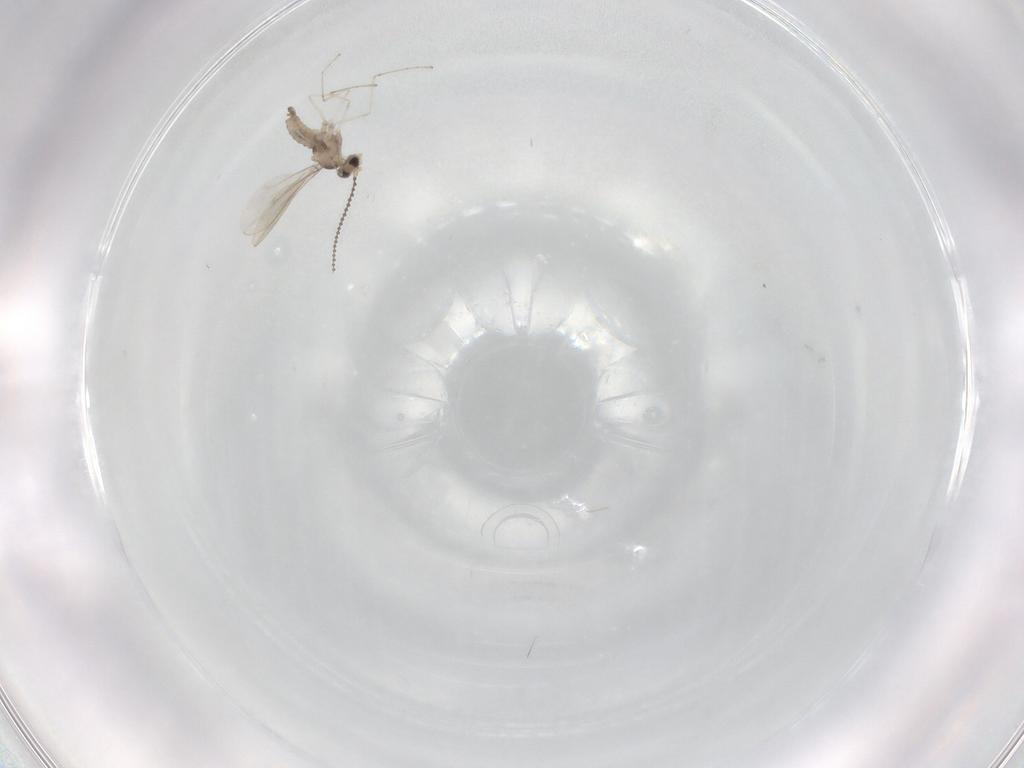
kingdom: Animalia
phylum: Arthropoda
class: Insecta
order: Diptera
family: Cecidomyiidae
